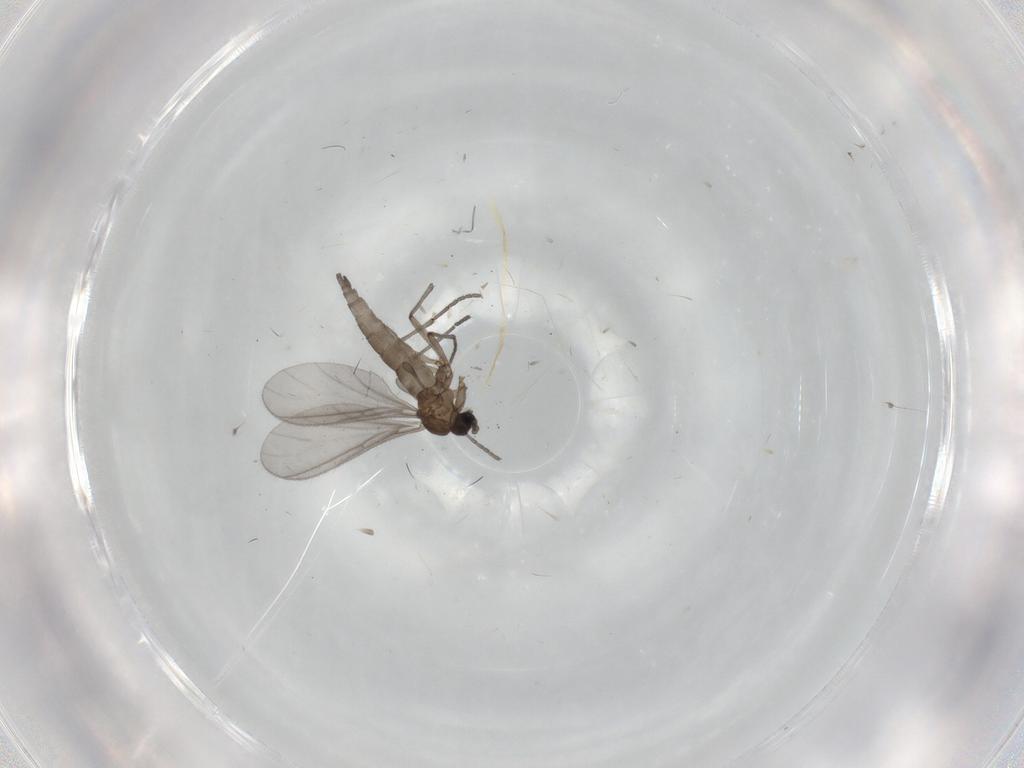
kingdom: Animalia
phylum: Arthropoda
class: Insecta
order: Diptera
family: Sciaridae
